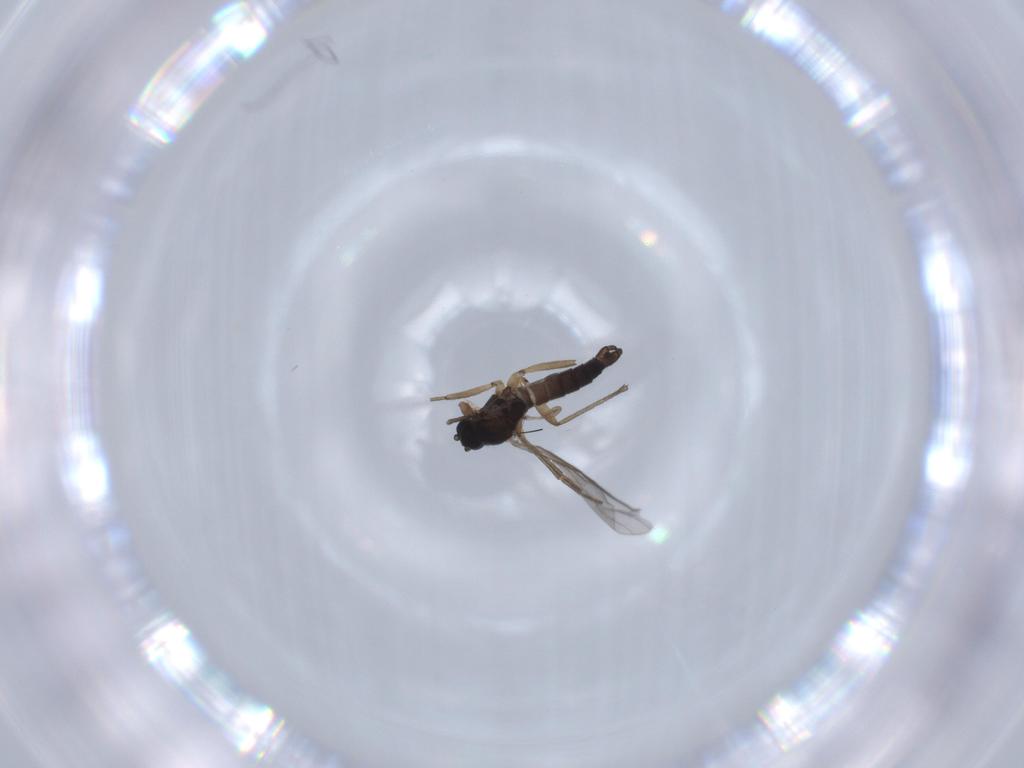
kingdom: Animalia
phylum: Arthropoda
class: Insecta
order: Diptera
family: Sciaridae
